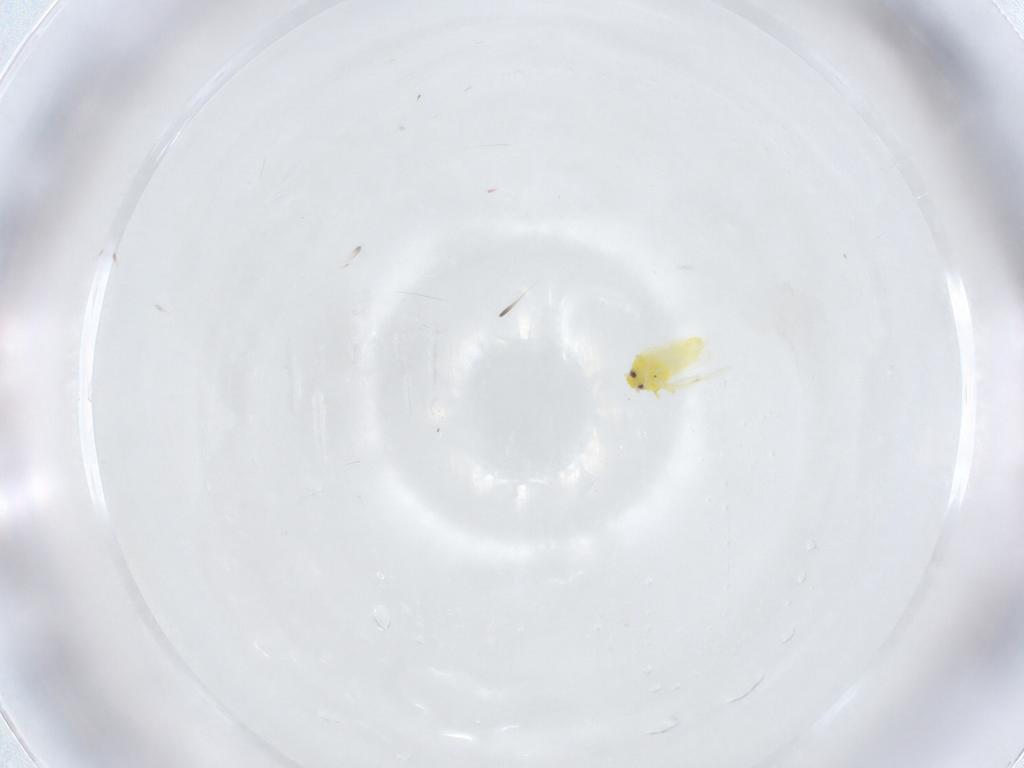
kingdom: Animalia
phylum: Arthropoda
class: Insecta
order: Hemiptera
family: Aleyrodidae
